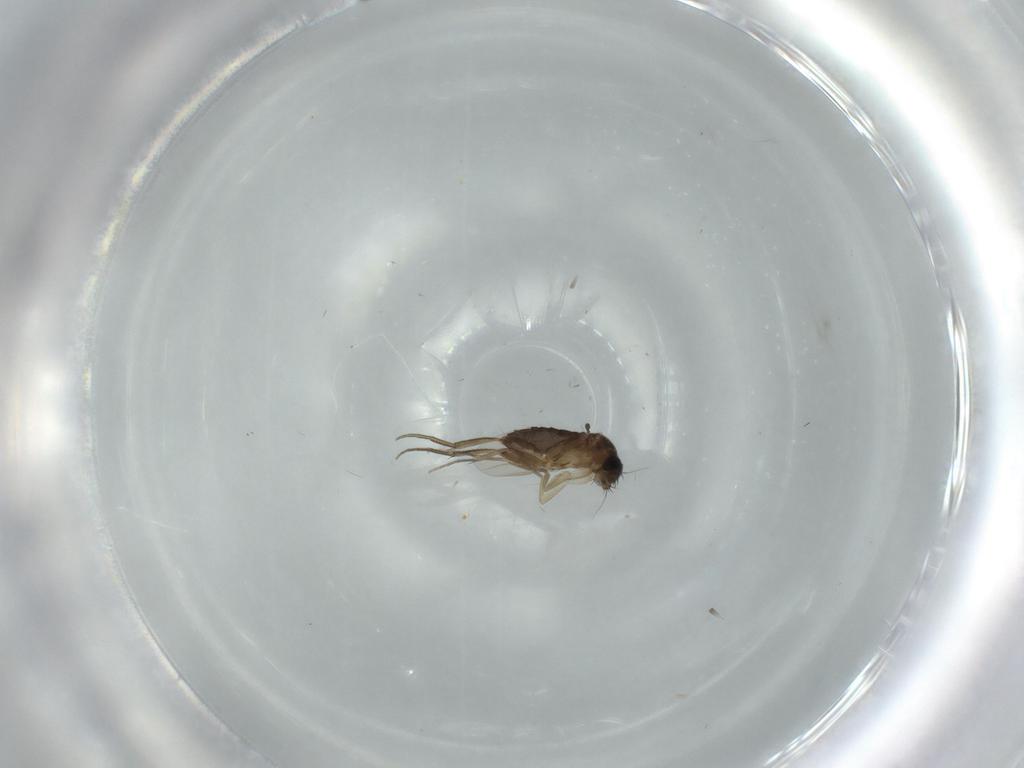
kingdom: Animalia
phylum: Arthropoda
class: Insecta
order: Diptera
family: Phoridae
